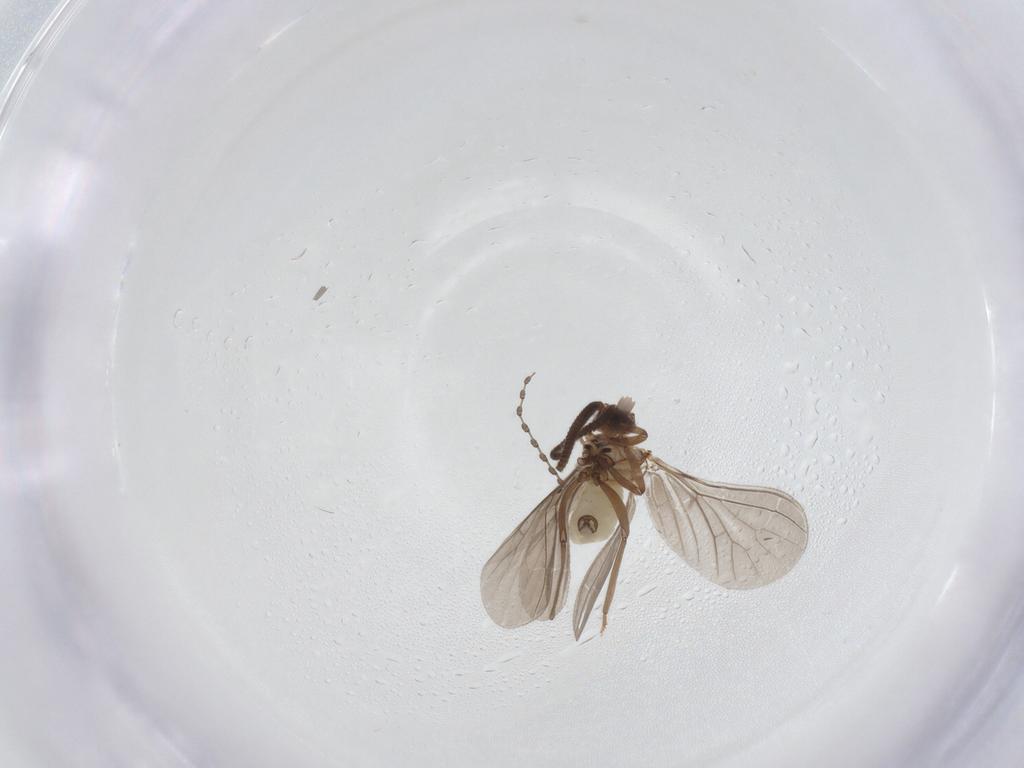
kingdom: Animalia
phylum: Arthropoda
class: Insecta
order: Neuroptera
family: Coniopterygidae
